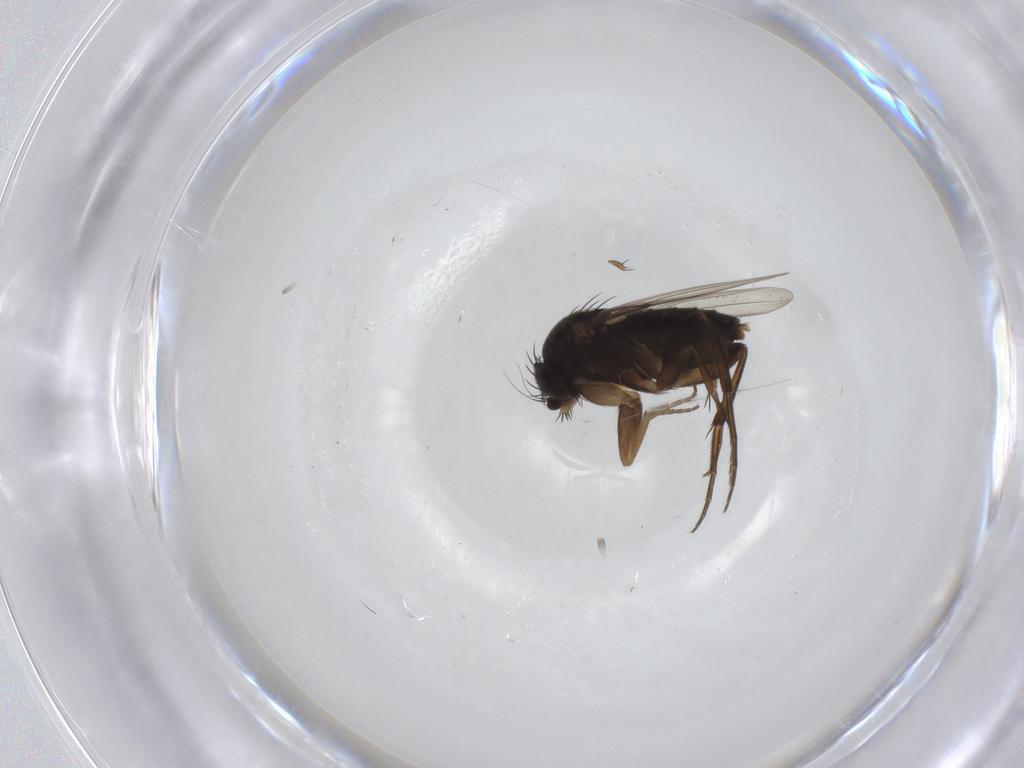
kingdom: Animalia
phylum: Arthropoda
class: Insecta
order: Diptera
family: Phoridae
